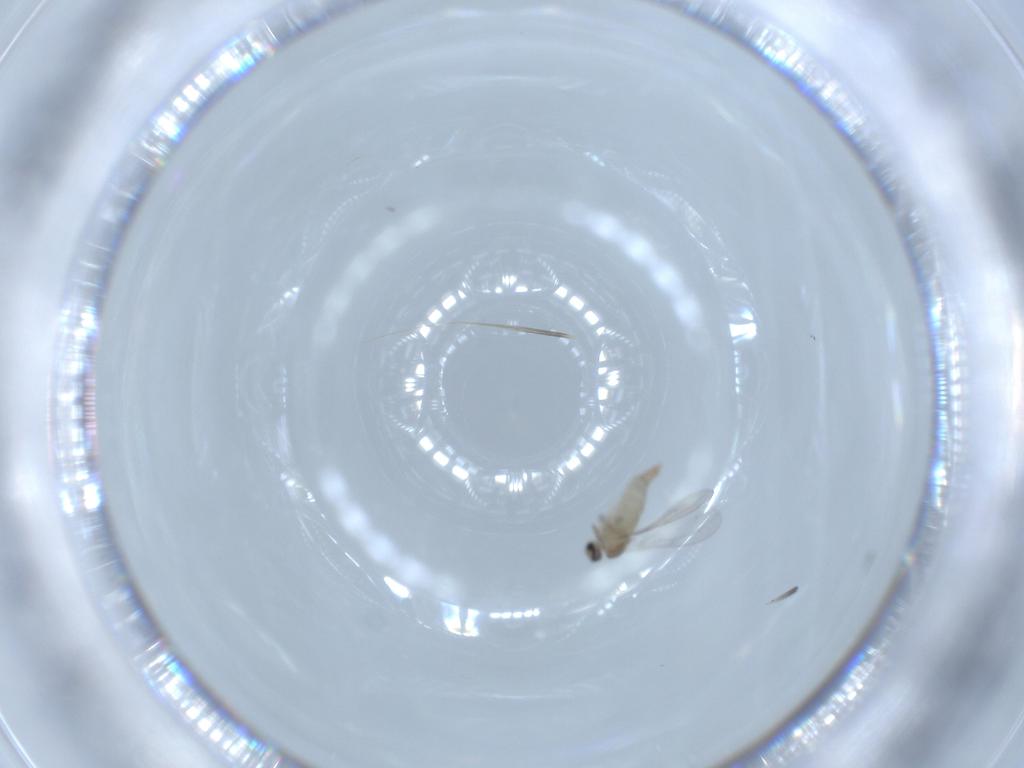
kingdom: Animalia
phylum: Arthropoda
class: Insecta
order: Diptera
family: Cecidomyiidae
